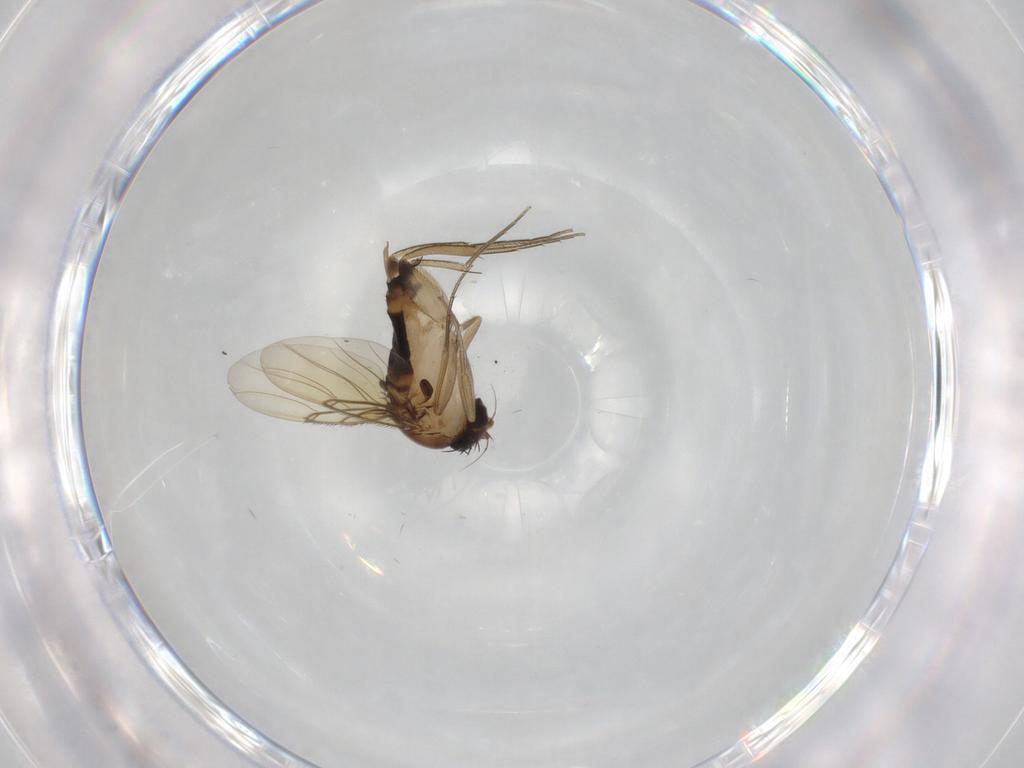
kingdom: Animalia
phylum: Arthropoda
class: Insecta
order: Diptera
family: Phoridae
